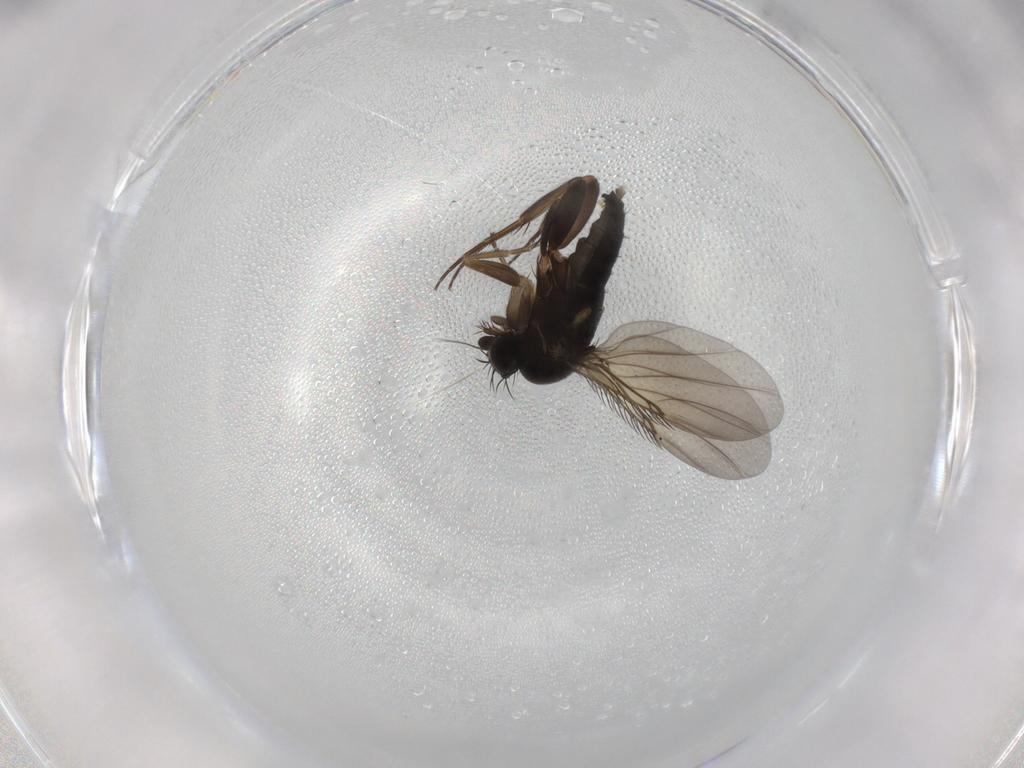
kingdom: Animalia
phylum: Arthropoda
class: Insecta
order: Diptera
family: Phoridae
